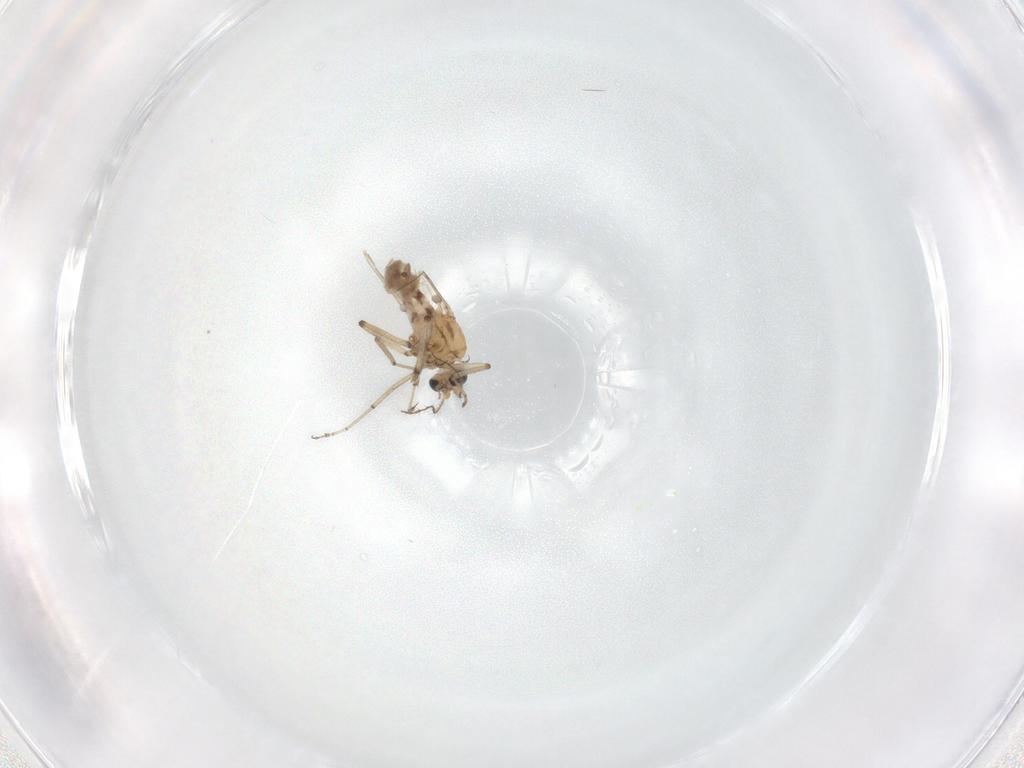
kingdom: Animalia
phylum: Arthropoda
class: Insecta
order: Diptera
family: Ceratopogonidae
